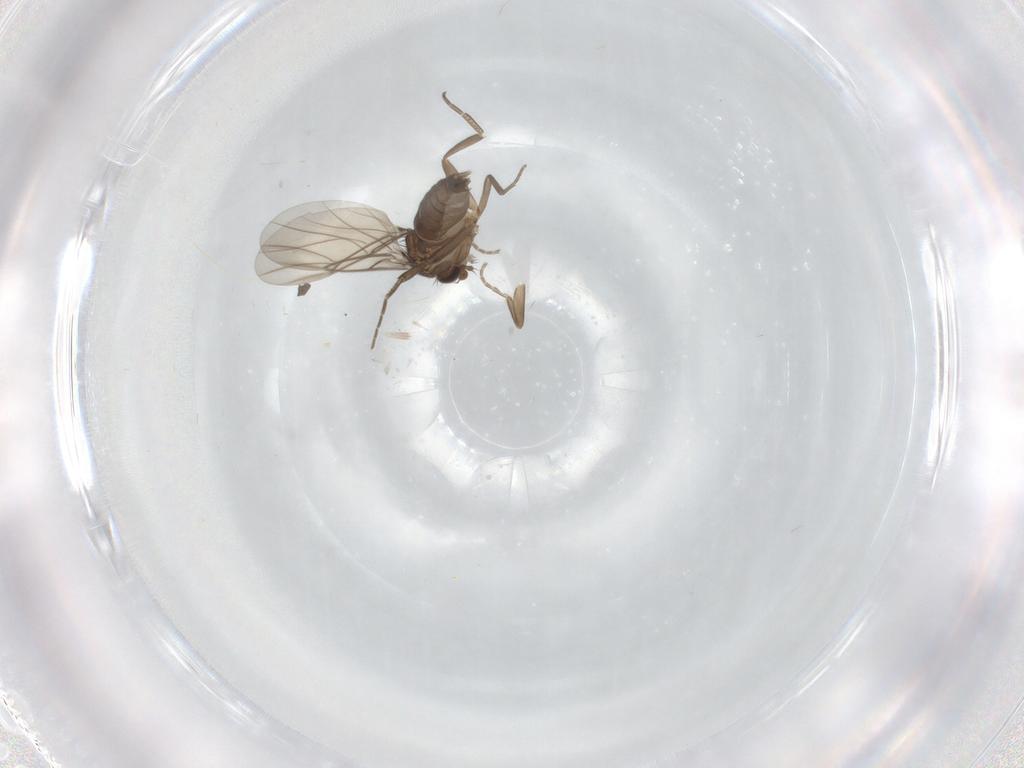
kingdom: Animalia
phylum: Arthropoda
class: Insecta
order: Diptera
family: Phoridae
